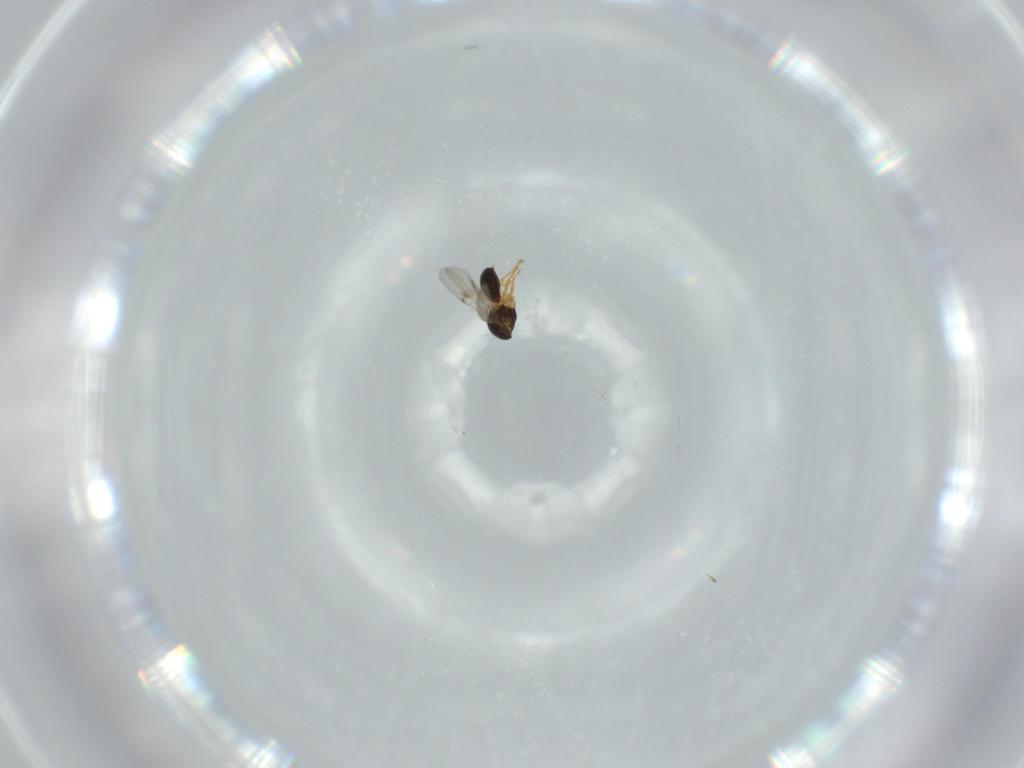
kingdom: Animalia
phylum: Arthropoda
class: Insecta
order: Hymenoptera
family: Scelionidae
